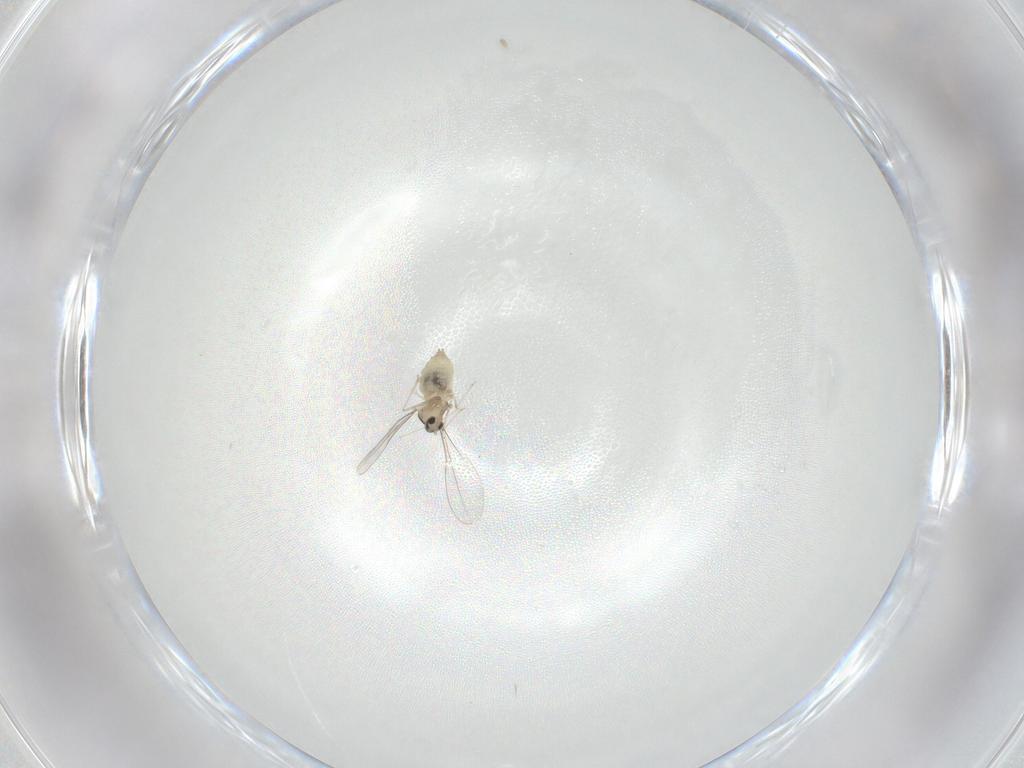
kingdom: Animalia
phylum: Arthropoda
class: Insecta
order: Diptera
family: Cecidomyiidae
